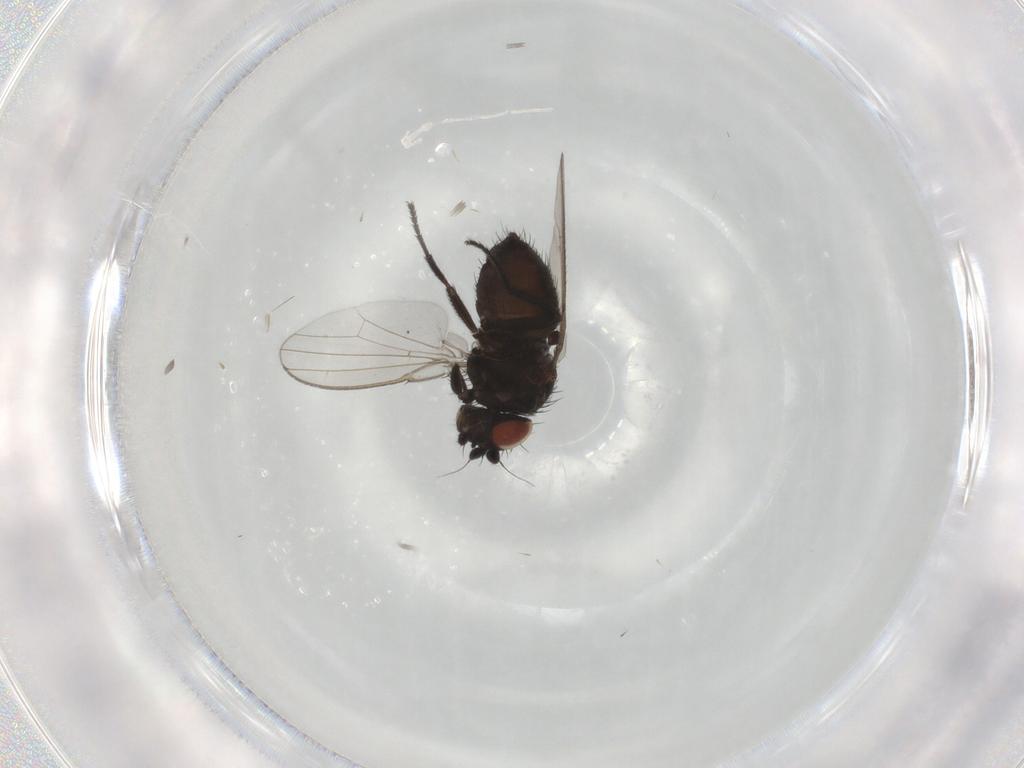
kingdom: Animalia
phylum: Arthropoda
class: Insecta
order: Diptera
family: Milichiidae
